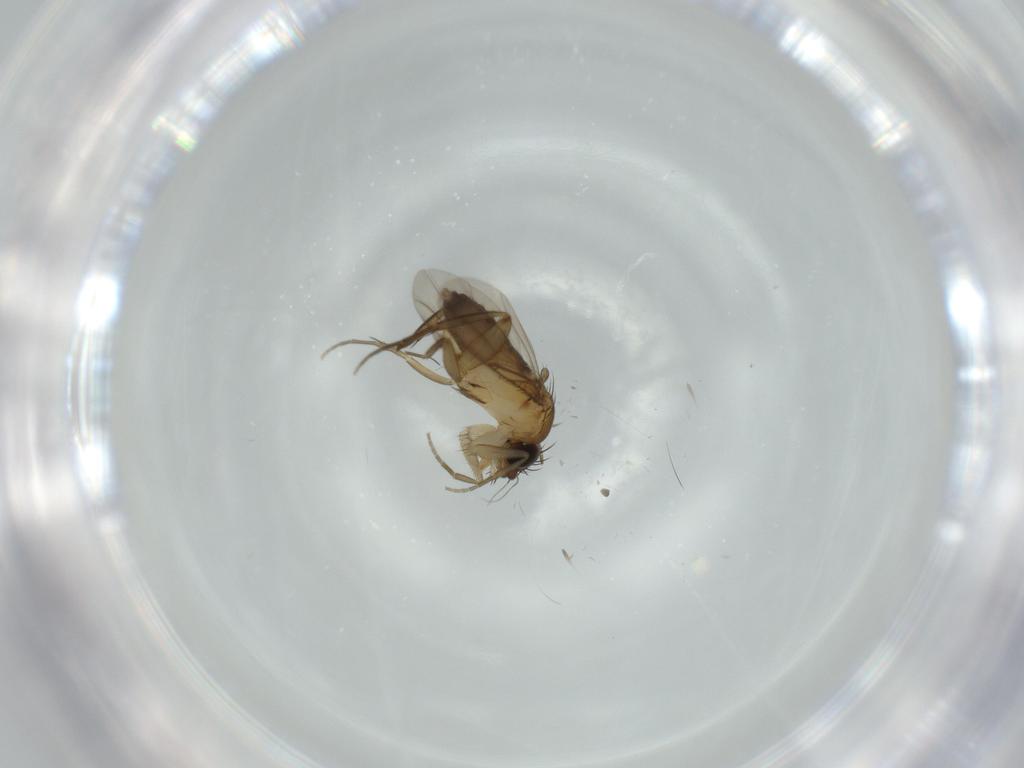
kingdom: Animalia
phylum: Arthropoda
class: Insecta
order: Diptera
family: Phoridae
